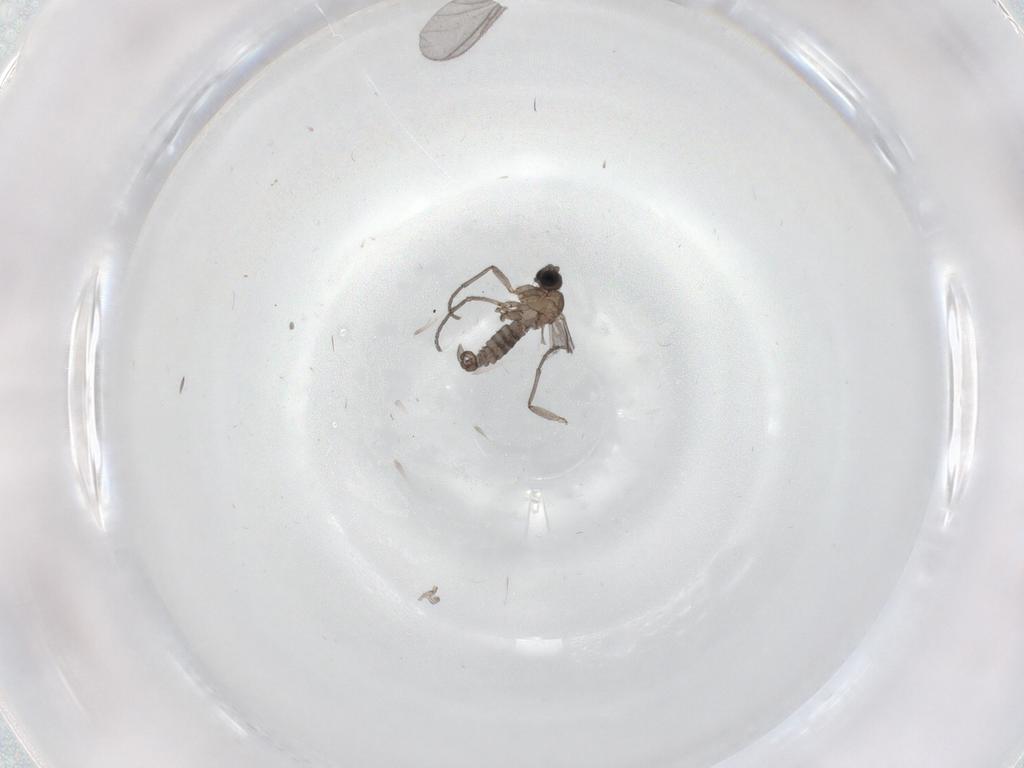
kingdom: Animalia
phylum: Arthropoda
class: Insecta
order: Diptera
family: Sciaridae
